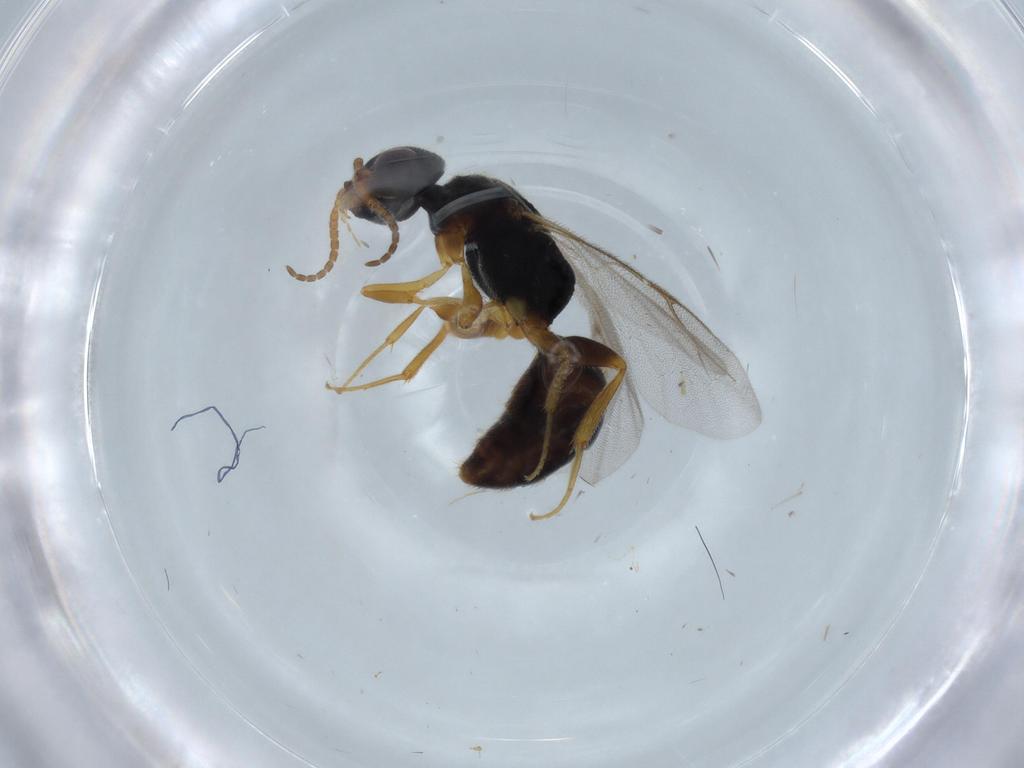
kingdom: Animalia
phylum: Arthropoda
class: Insecta
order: Hymenoptera
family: Bethylidae
